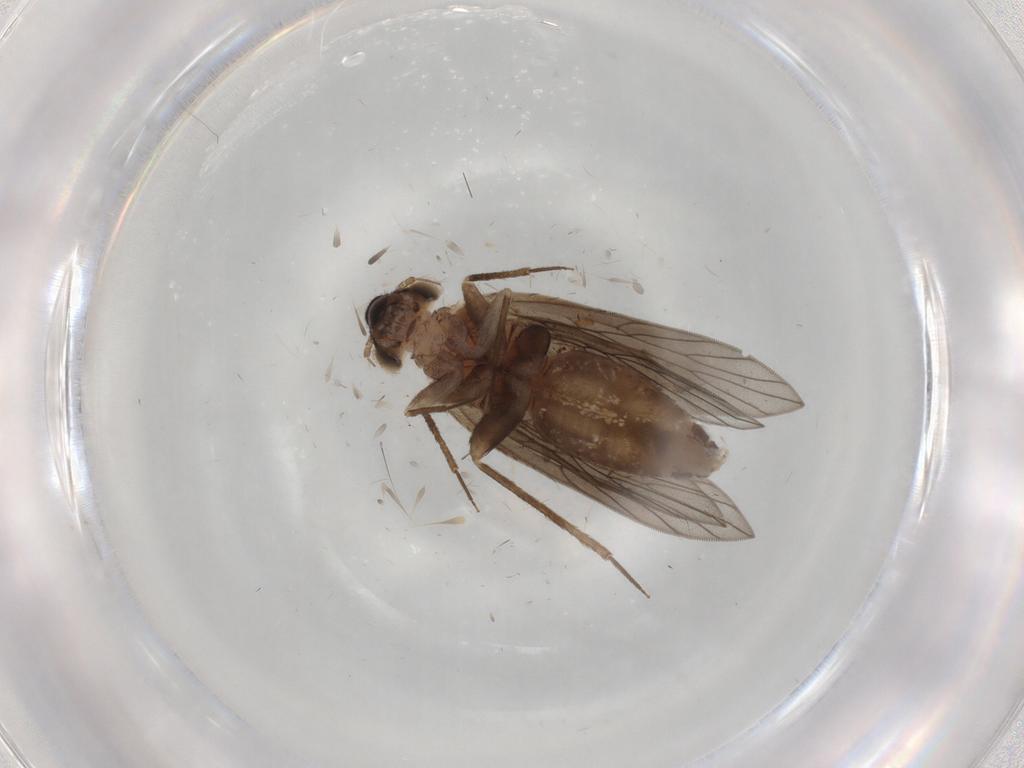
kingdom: Animalia
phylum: Arthropoda
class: Insecta
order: Psocodea
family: Lepidopsocidae
